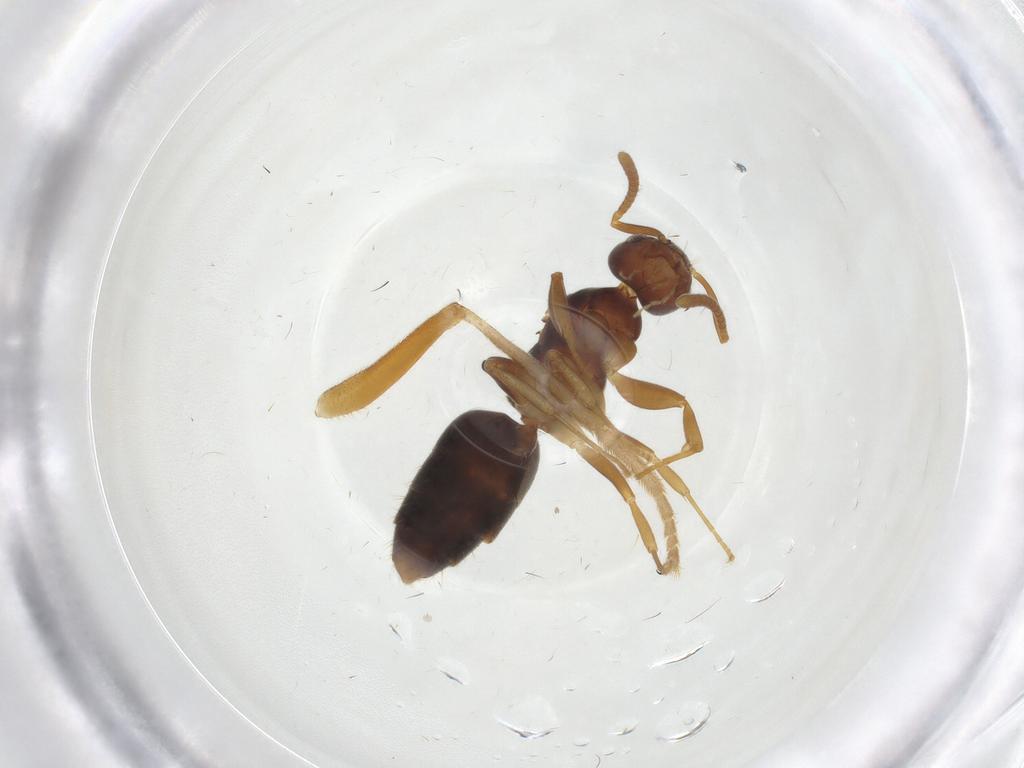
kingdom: Animalia
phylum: Arthropoda
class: Insecta
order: Hymenoptera
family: Formicidae
